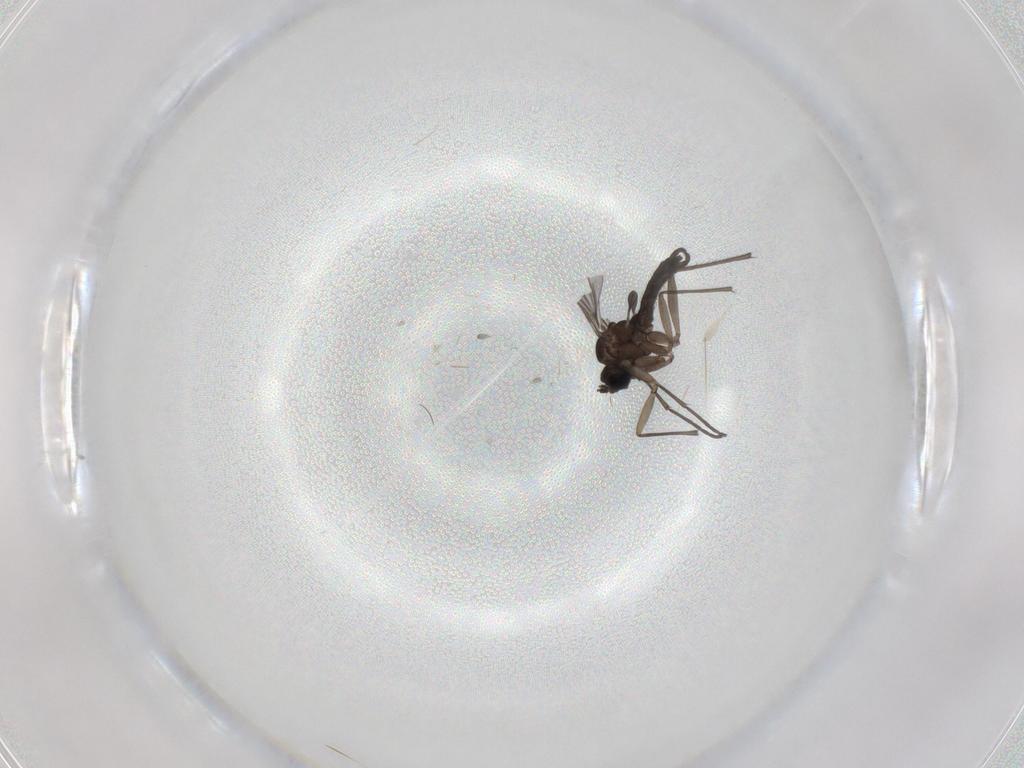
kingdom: Animalia
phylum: Arthropoda
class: Insecta
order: Diptera
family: Sciaridae
